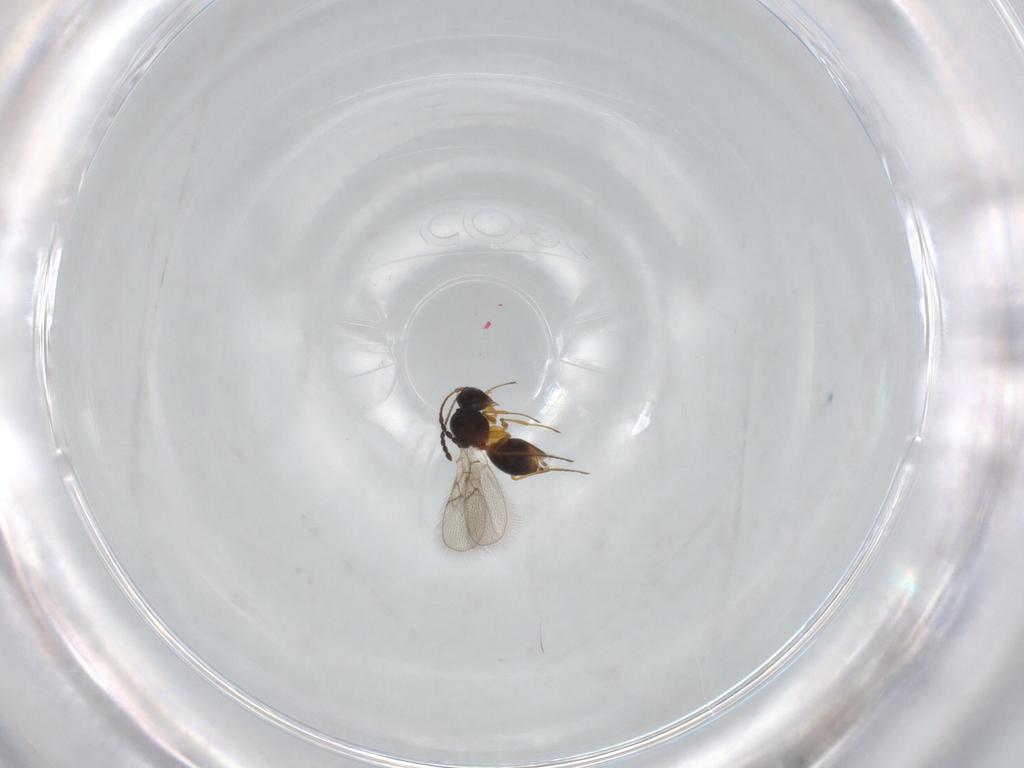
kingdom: Animalia
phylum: Arthropoda
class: Insecta
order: Hymenoptera
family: Figitidae
